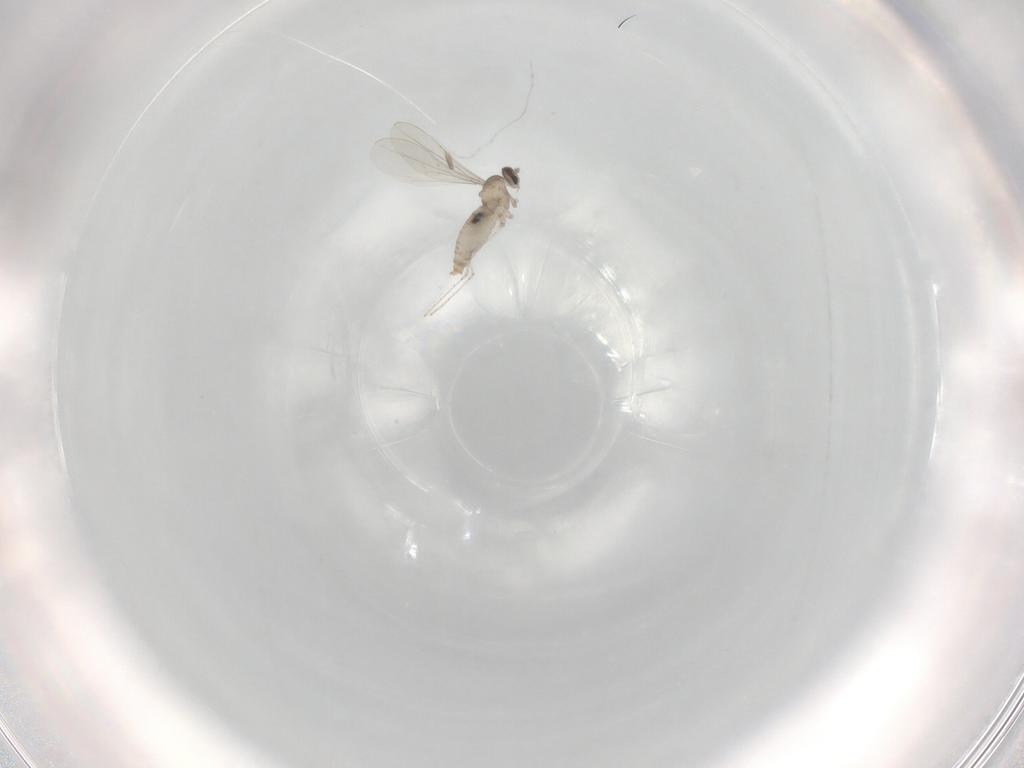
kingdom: Animalia
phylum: Arthropoda
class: Insecta
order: Diptera
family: Cecidomyiidae
